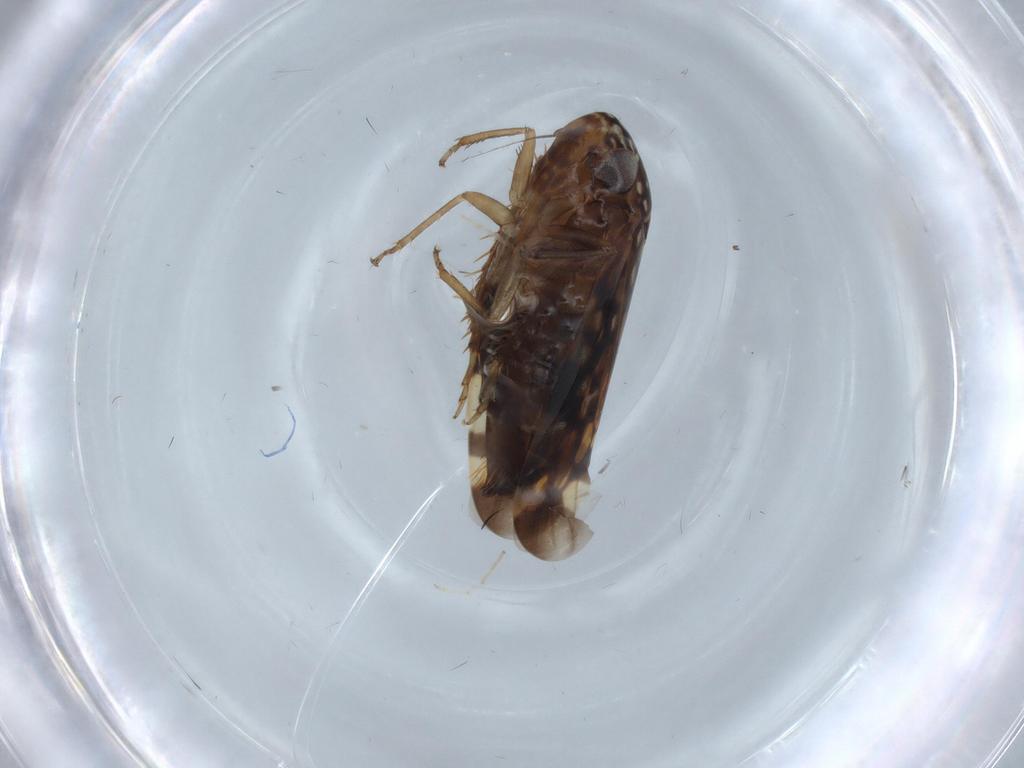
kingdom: Animalia
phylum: Arthropoda
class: Insecta
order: Hemiptera
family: Cicadellidae
